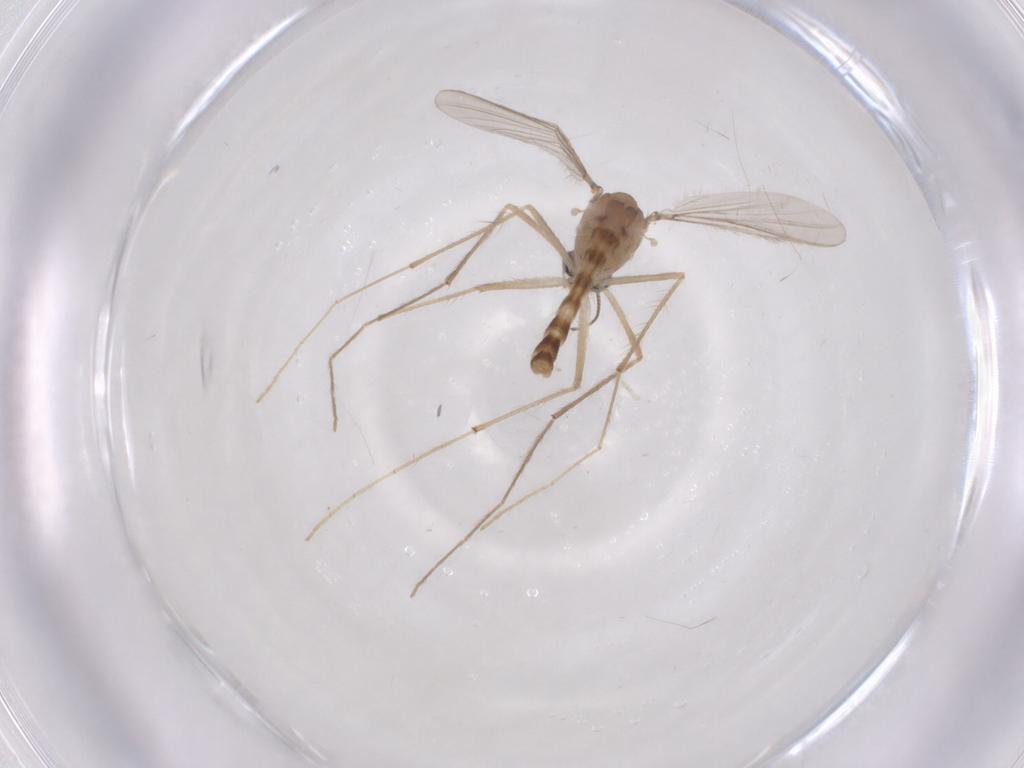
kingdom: Animalia
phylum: Arthropoda
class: Insecta
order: Diptera
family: Chironomidae
